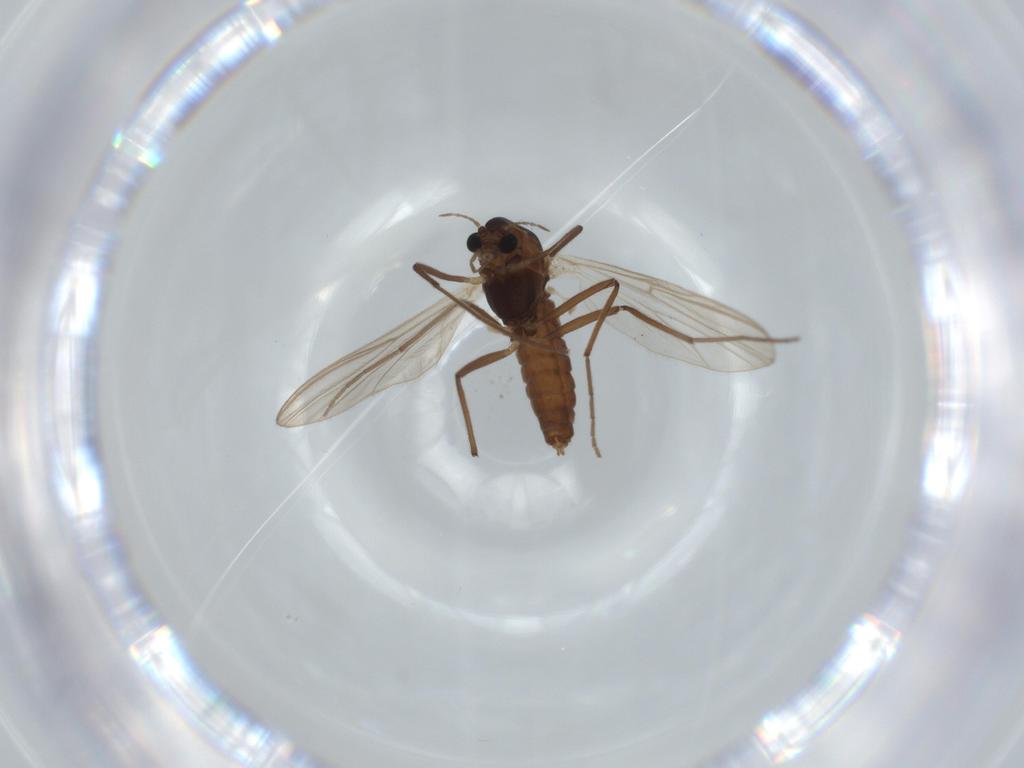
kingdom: Animalia
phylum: Arthropoda
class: Insecta
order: Diptera
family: Chironomidae
